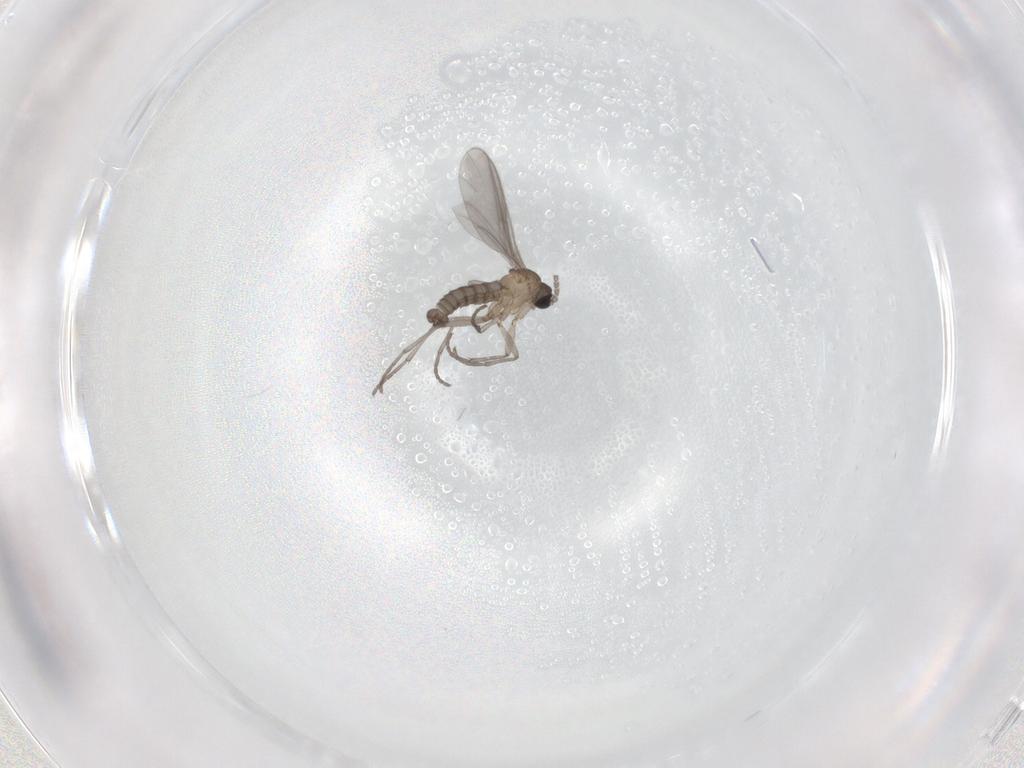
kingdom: Animalia
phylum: Arthropoda
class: Insecta
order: Diptera
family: Sciaridae
